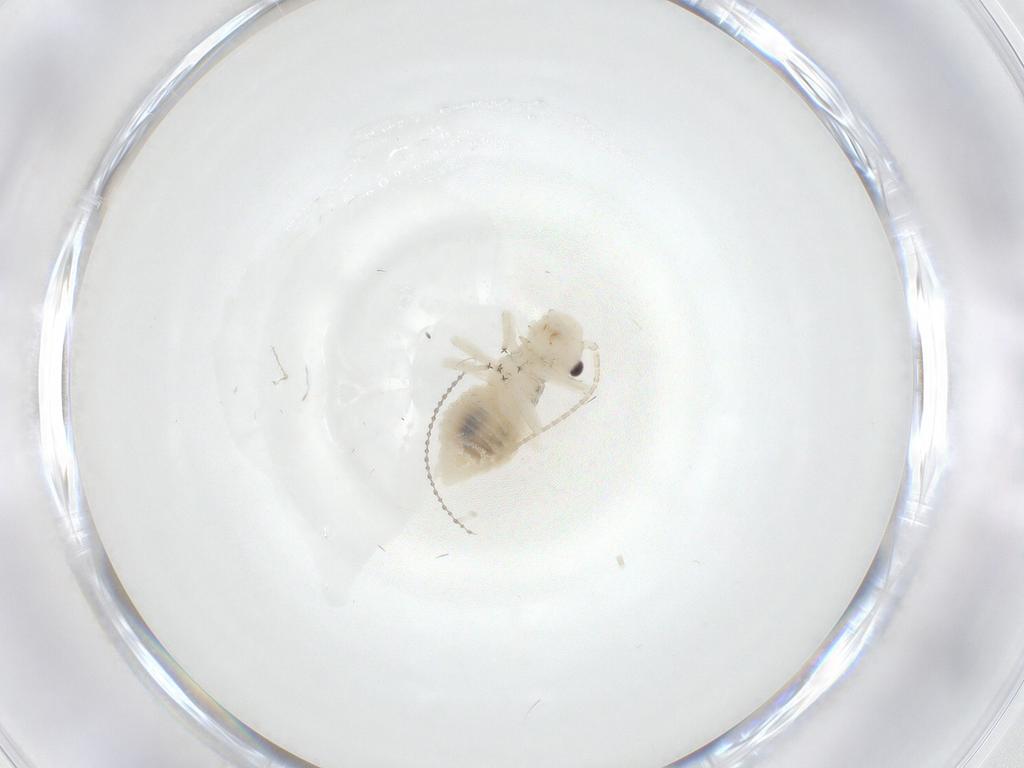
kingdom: Animalia
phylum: Arthropoda
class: Insecta
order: Psocodea
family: Amphipsocidae
